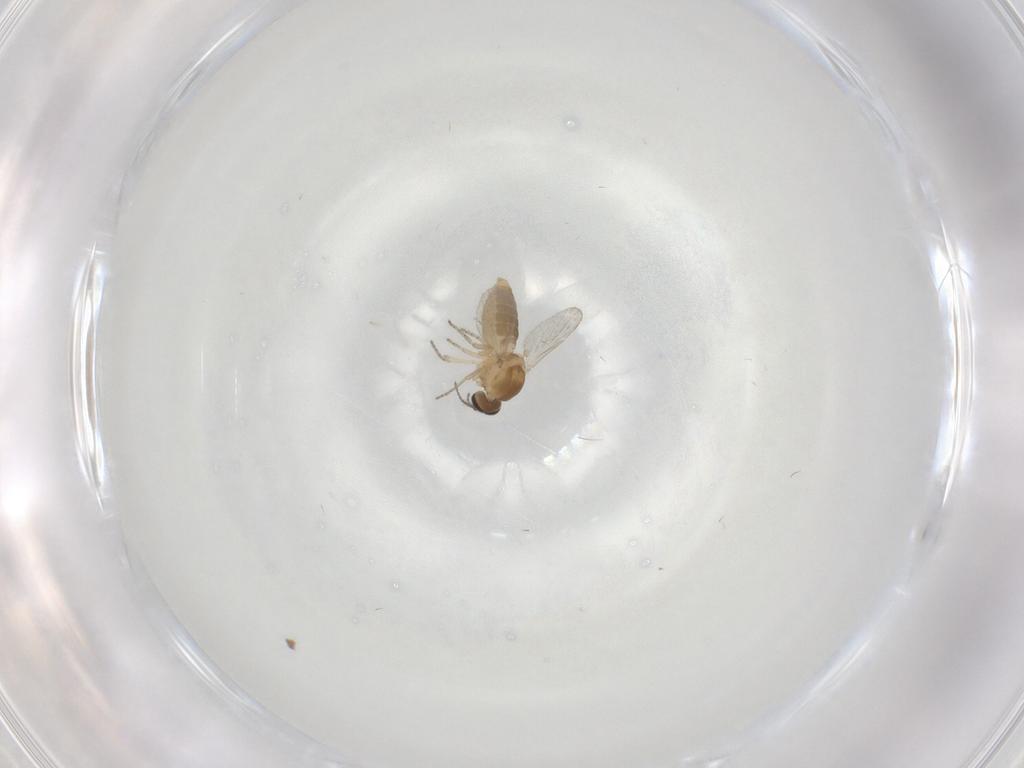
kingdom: Animalia
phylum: Arthropoda
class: Insecta
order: Diptera
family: Ceratopogonidae
